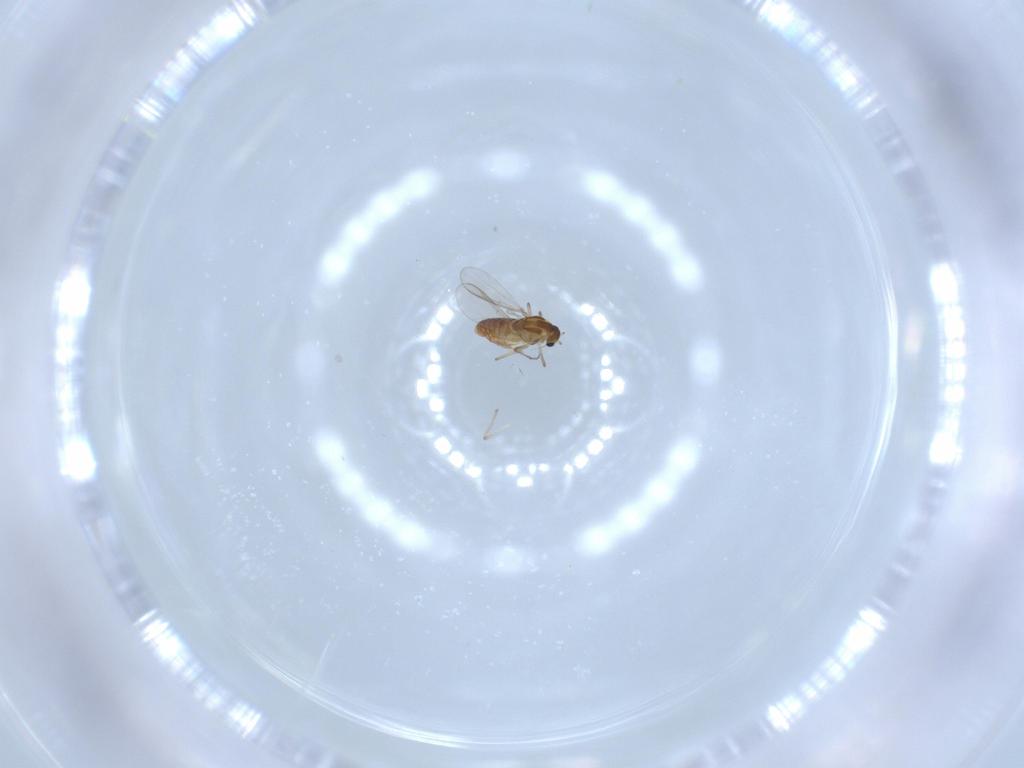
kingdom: Animalia
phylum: Arthropoda
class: Insecta
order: Diptera
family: Chironomidae
